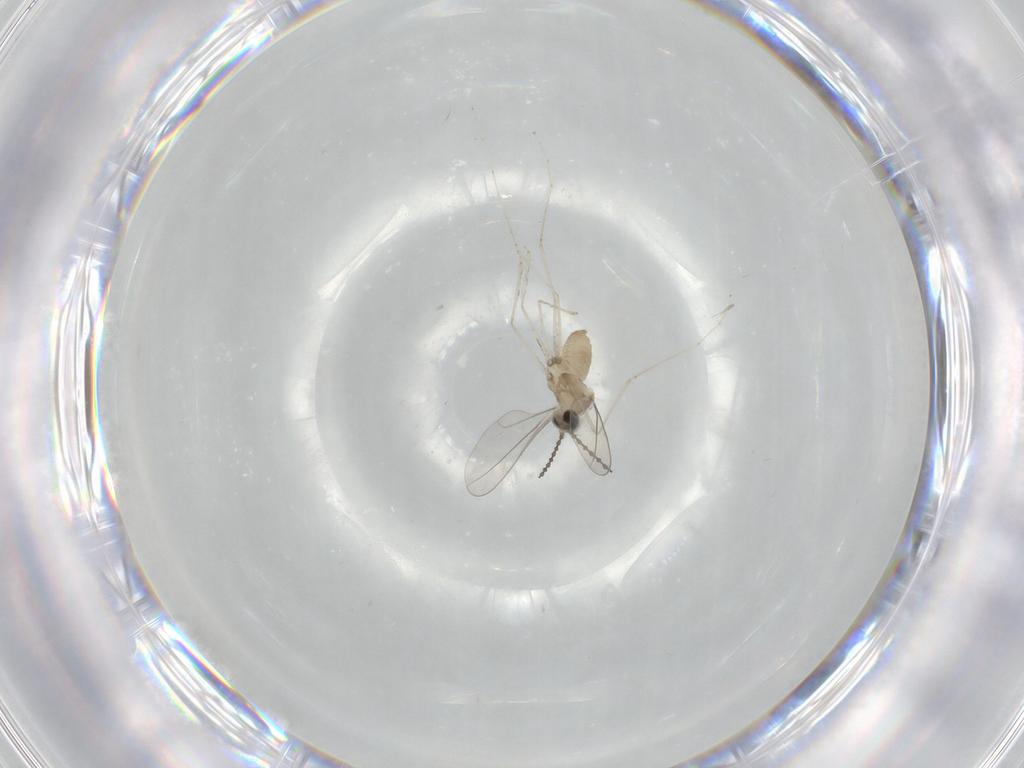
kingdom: Animalia
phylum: Arthropoda
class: Insecta
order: Diptera
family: Cecidomyiidae
